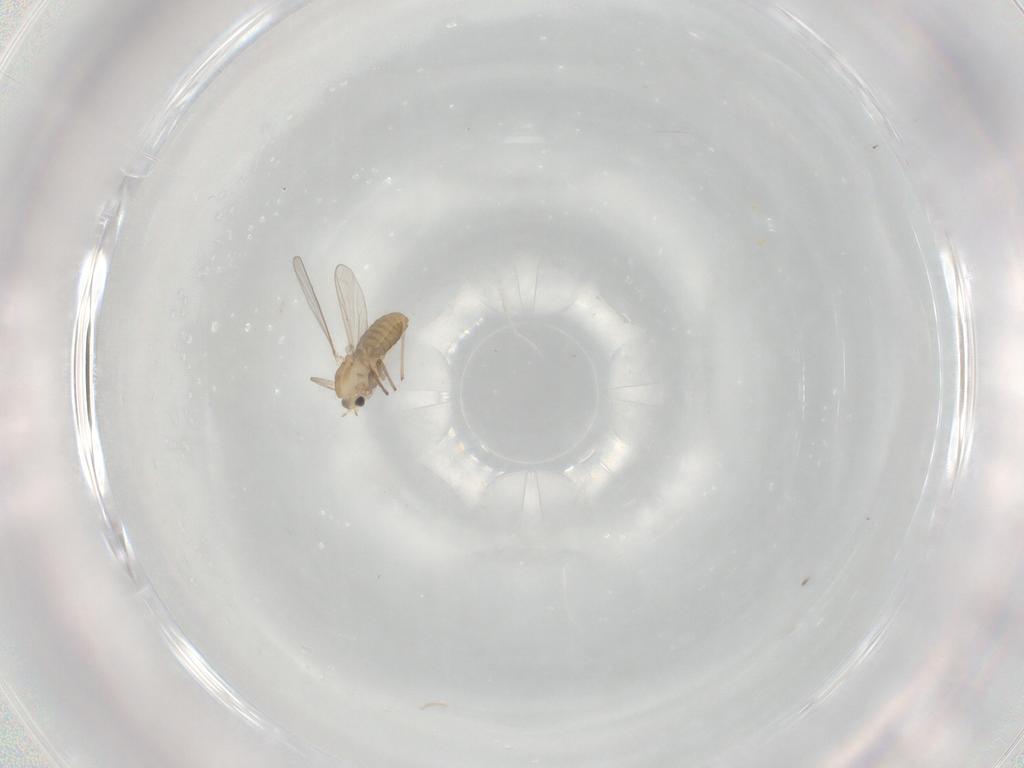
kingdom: Animalia
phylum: Arthropoda
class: Insecta
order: Diptera
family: Chironomidae
